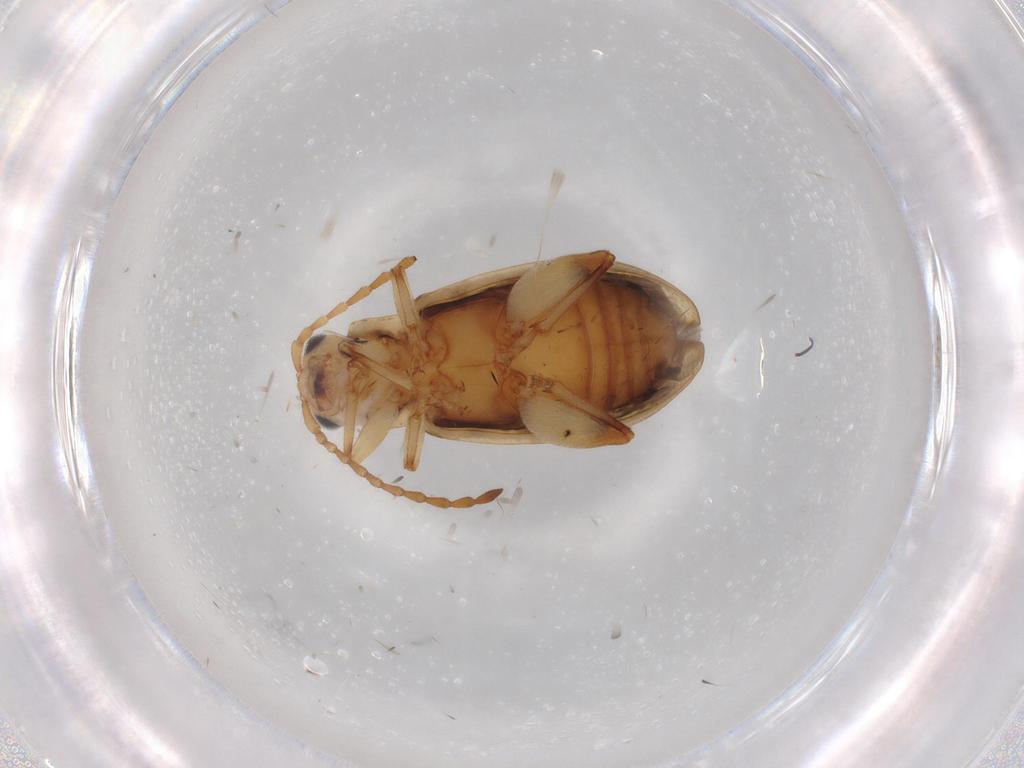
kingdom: Animalia
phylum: Arthropoda
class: Insecta
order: Coleoptera
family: Chrysomelidae
